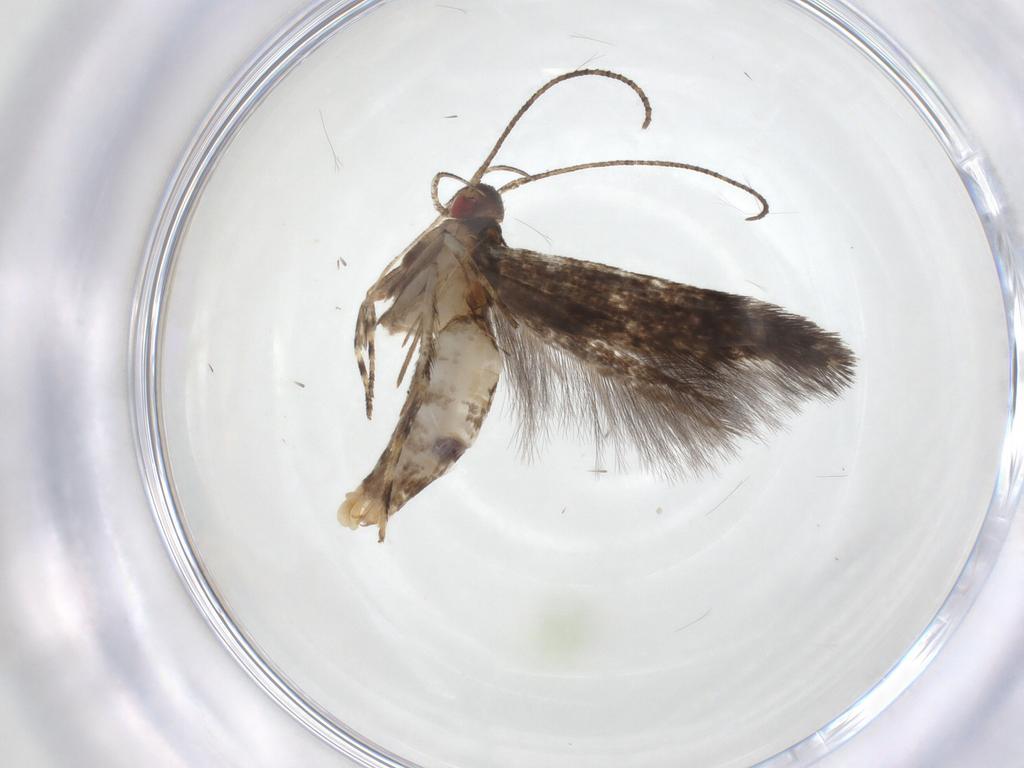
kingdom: Animalia
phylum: Arthropoda
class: Insecta
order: Lepidoptera
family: Cosmopterigidae
